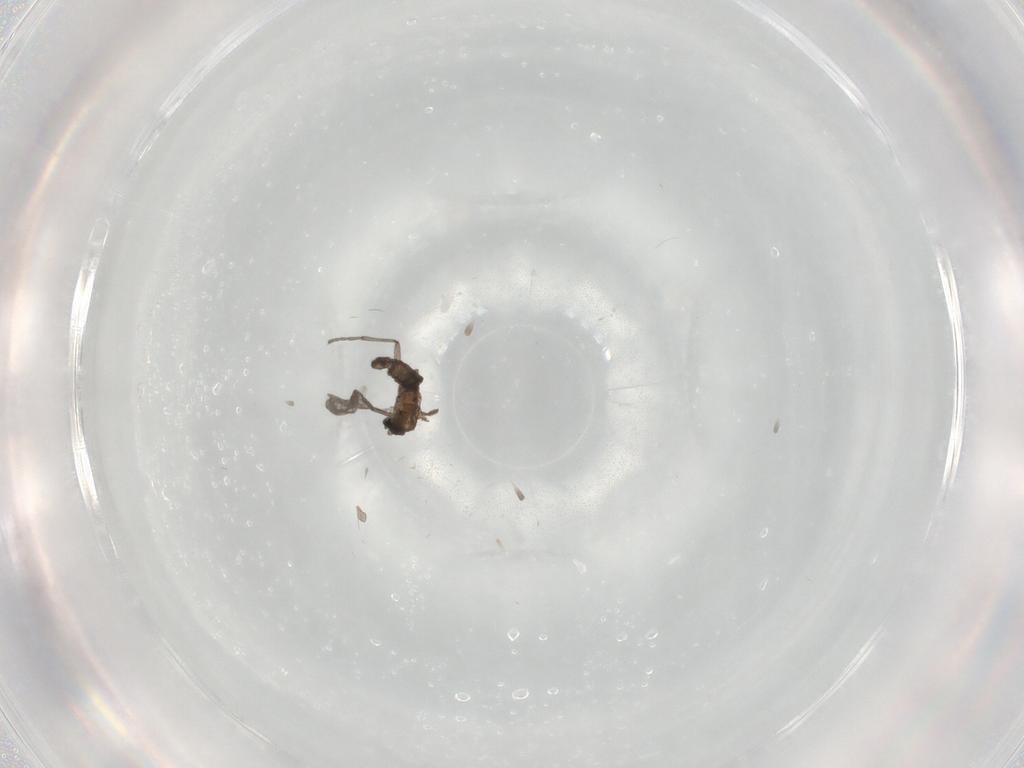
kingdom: Animalia
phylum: Arthropoda
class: Insecta
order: Diptera
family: Sciaridae
